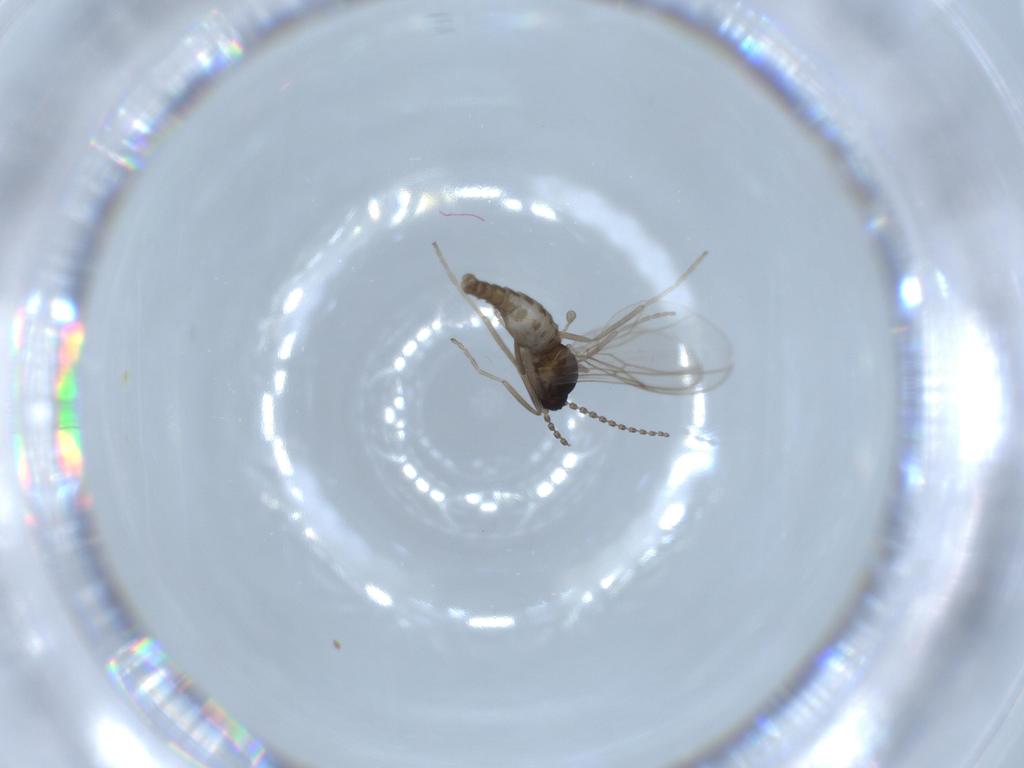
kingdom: Animalia
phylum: Arthropoda
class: Insecta
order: Diptera
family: Cecidomyiidae
